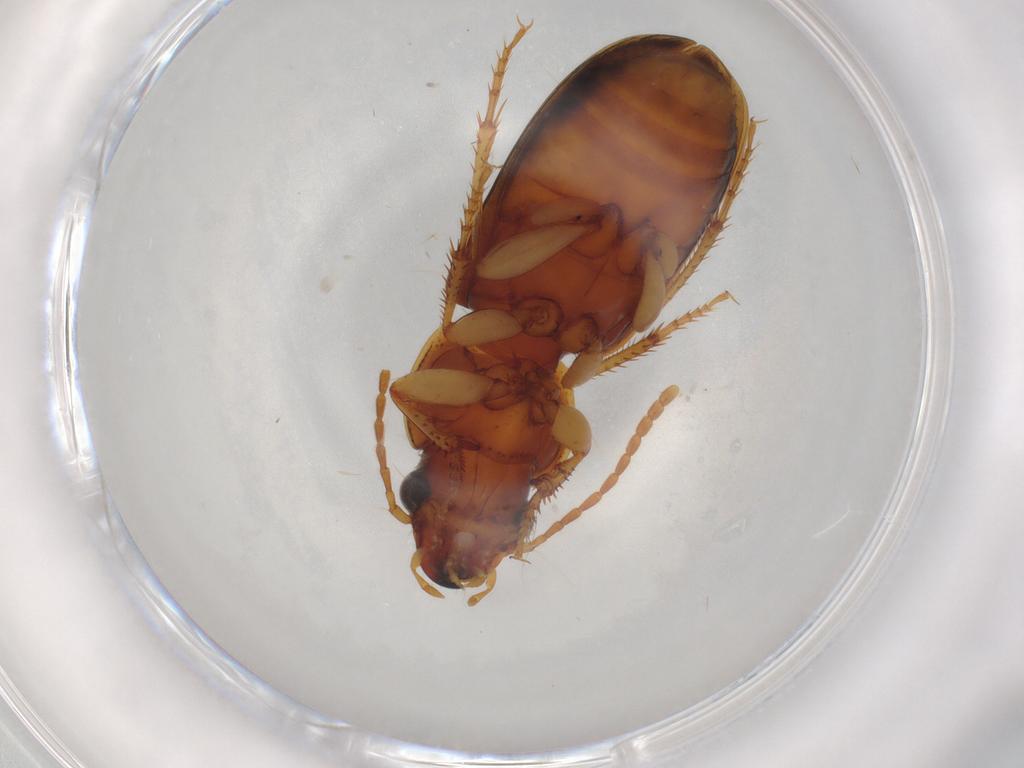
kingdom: Animalia
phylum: Arthropoda
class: Insecta
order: Coleoptera
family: Carabidae
